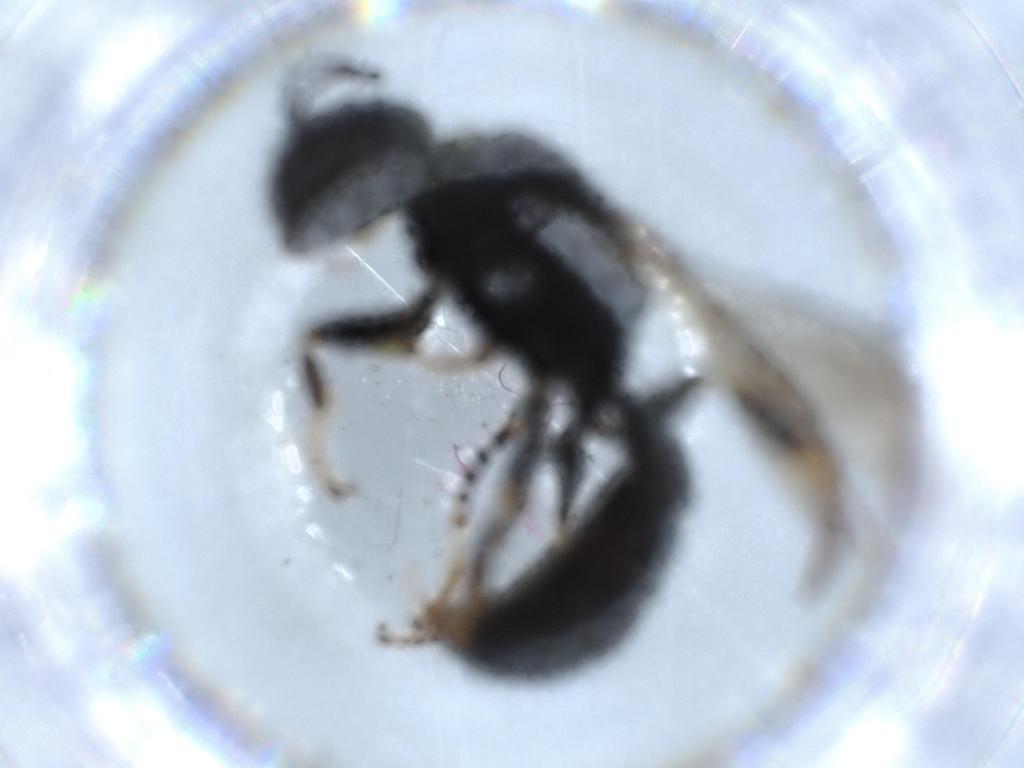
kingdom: Animalia
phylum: Arthropoda
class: Insecta
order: Hymenoptera
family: Crabronidae
